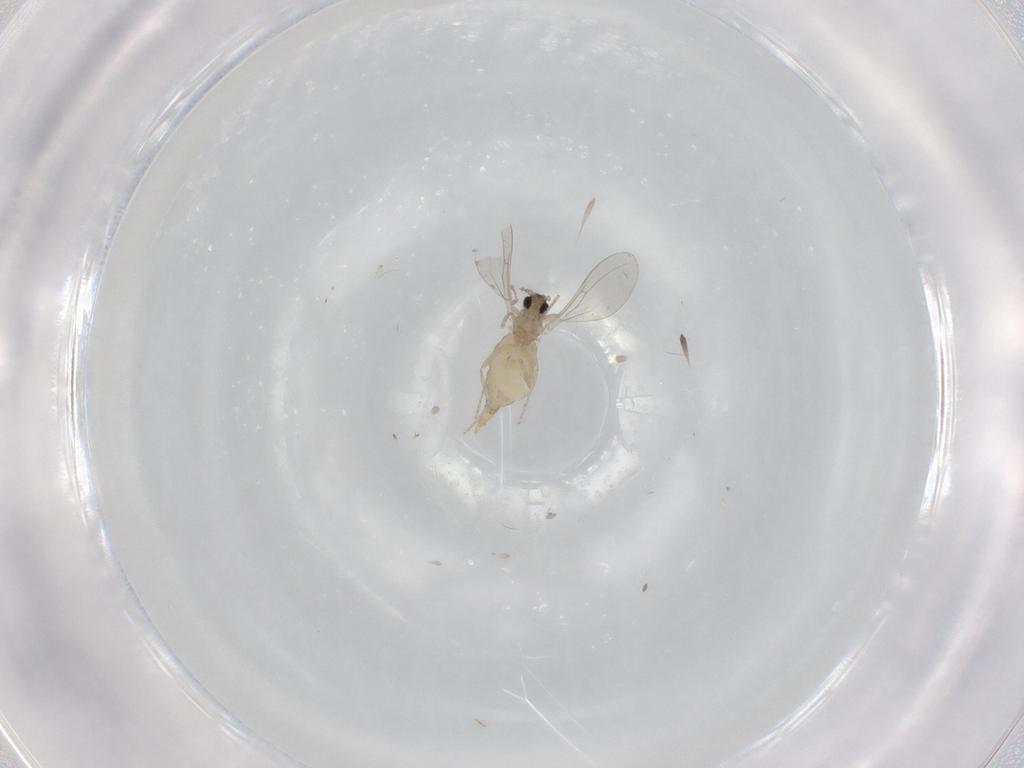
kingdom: Animalia
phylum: Arthropoda
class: Insecta
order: Diptera
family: Cecidomyiidae
